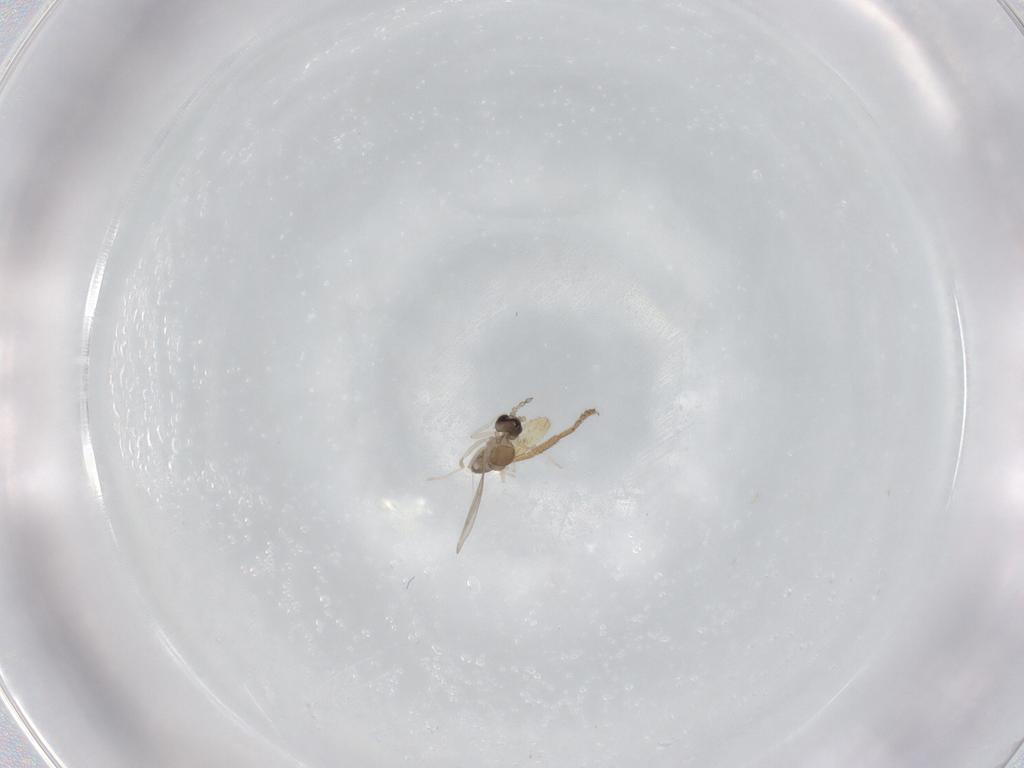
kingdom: Animalia
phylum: Arthropoda
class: Insecta
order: Diptera
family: Cecidomyiidae
